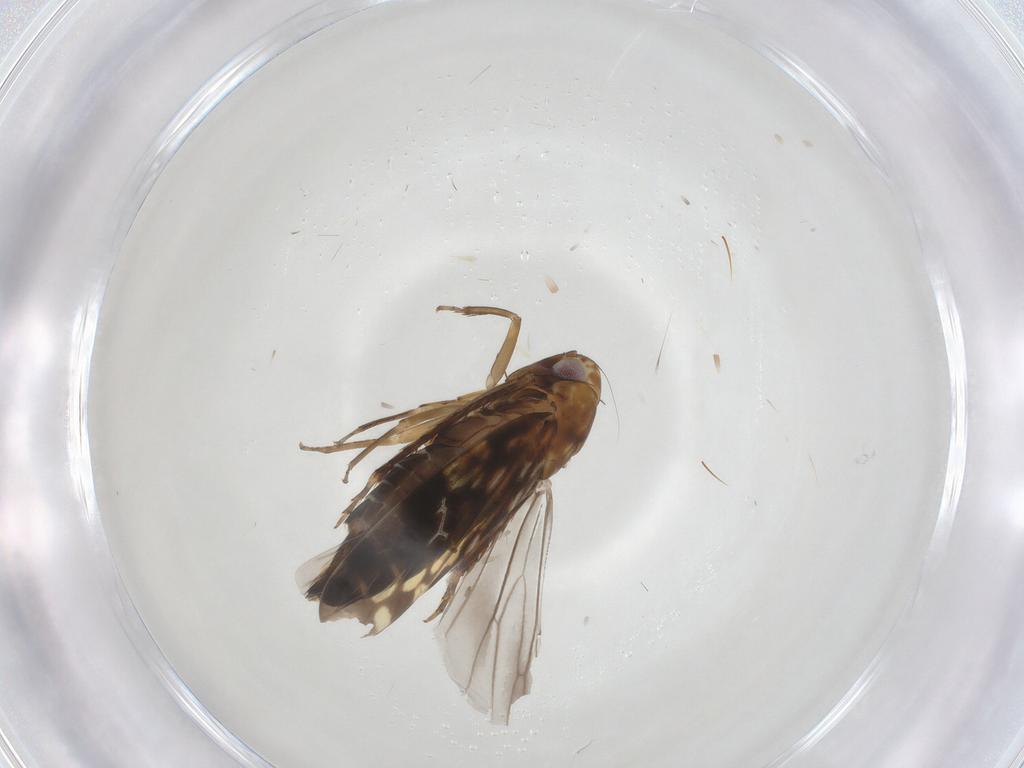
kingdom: Animalia
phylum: Arthropoda
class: Insecta
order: Hemiptera
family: Cicadellidae
